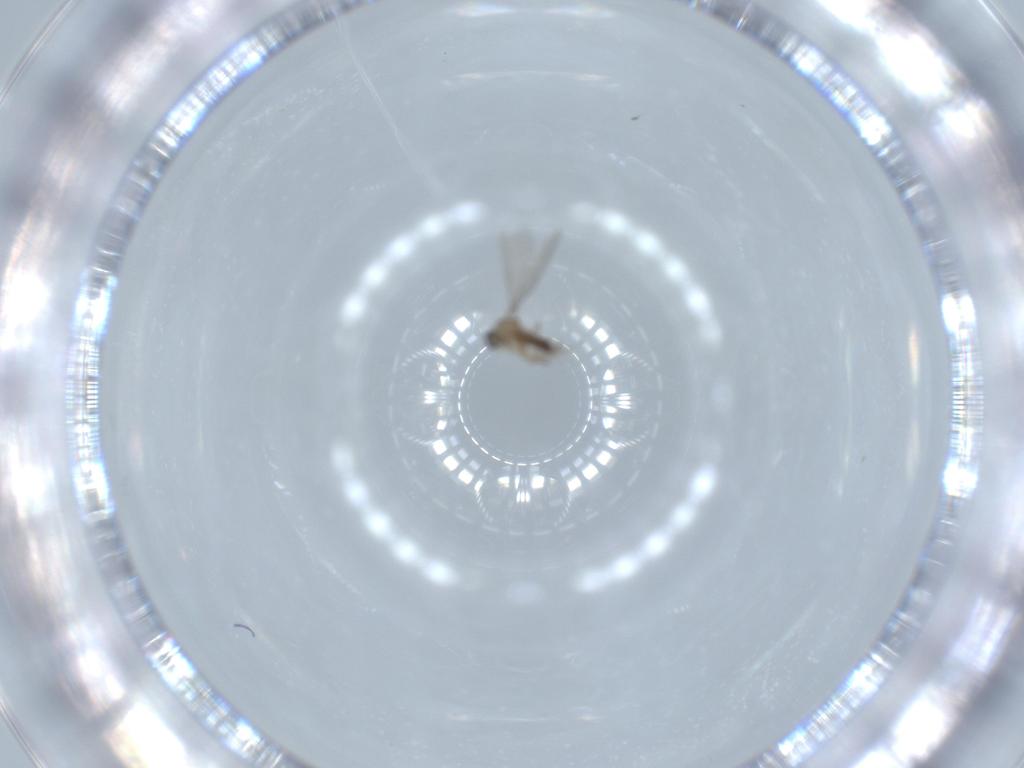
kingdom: Animalia
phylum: Arthropoda
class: Insecta
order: Diptera
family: Cecidomyiidae
